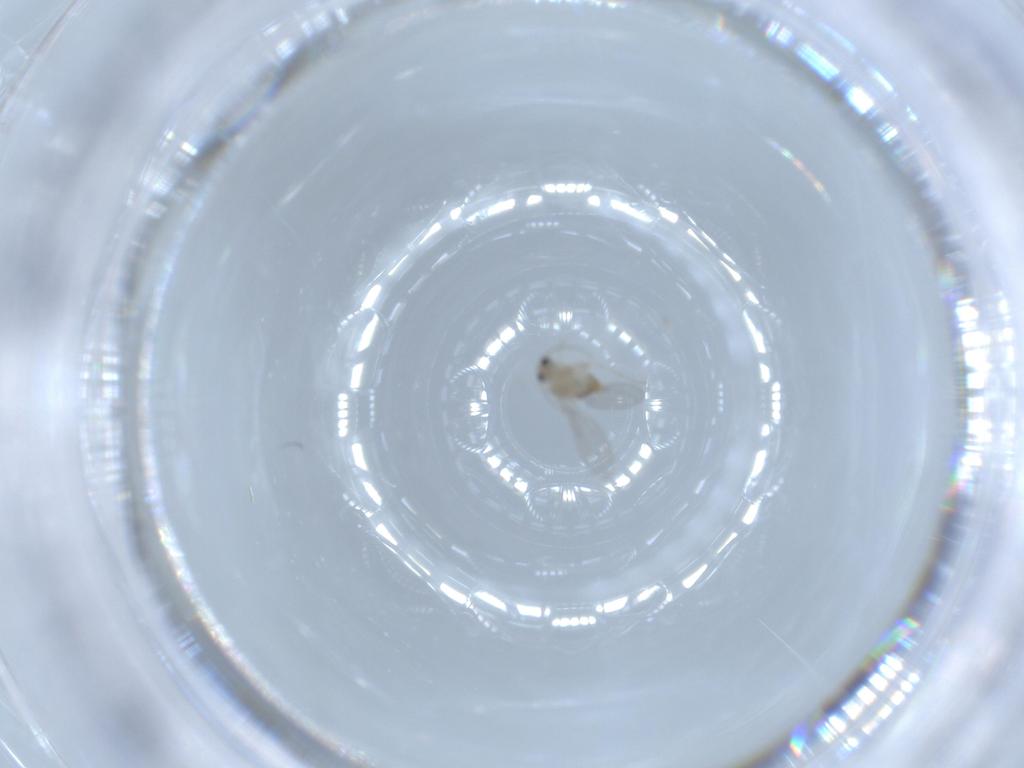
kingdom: Animalia
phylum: Arthropoda
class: Insecta
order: Diptera
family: Cecidomyiidae
